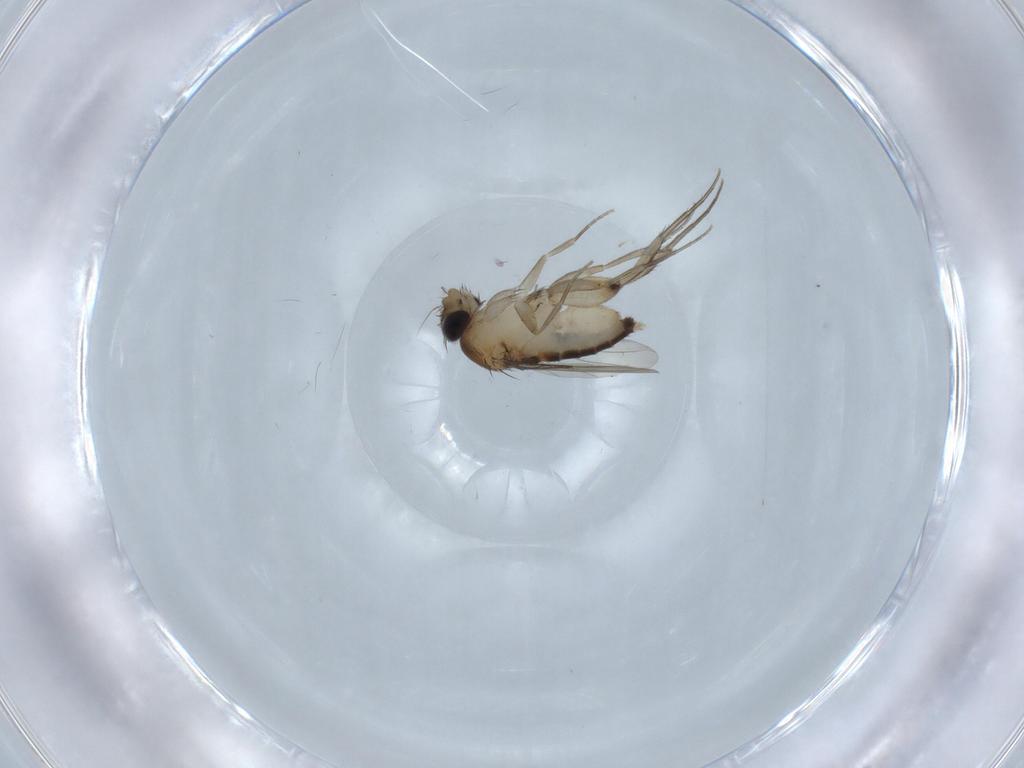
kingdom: Animalia
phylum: Arthropoda
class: Insecta
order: Diptera
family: Phoridae
